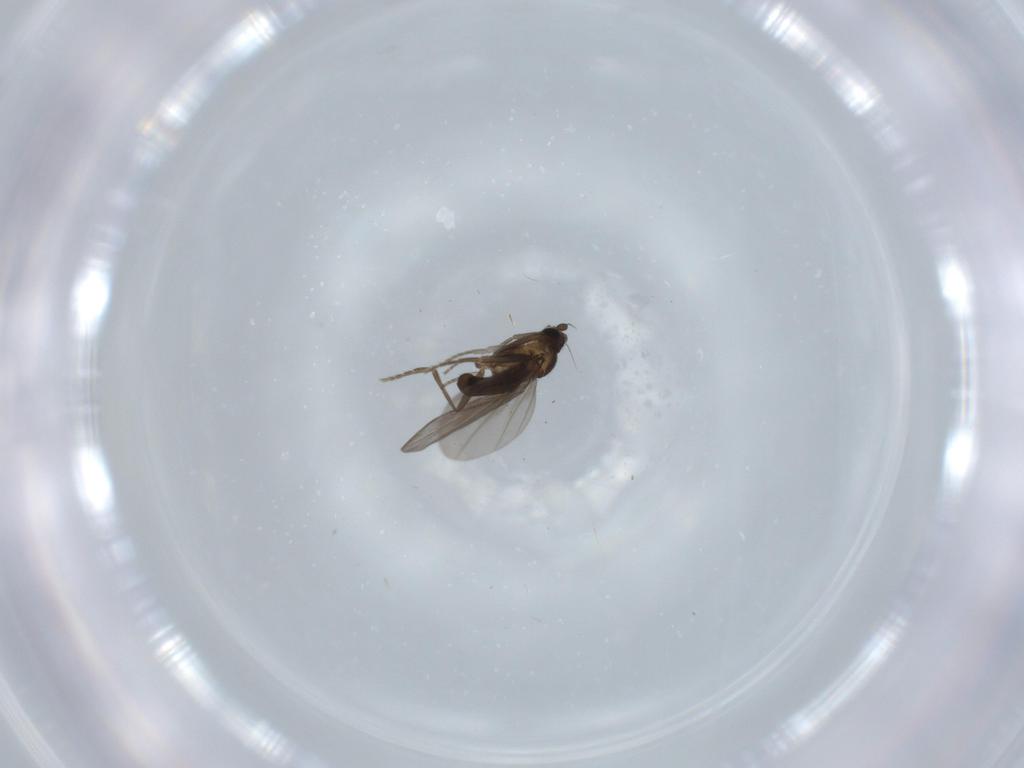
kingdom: Animalia
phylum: Arthropoda
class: Insecta
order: Diptera
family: Phoridae
